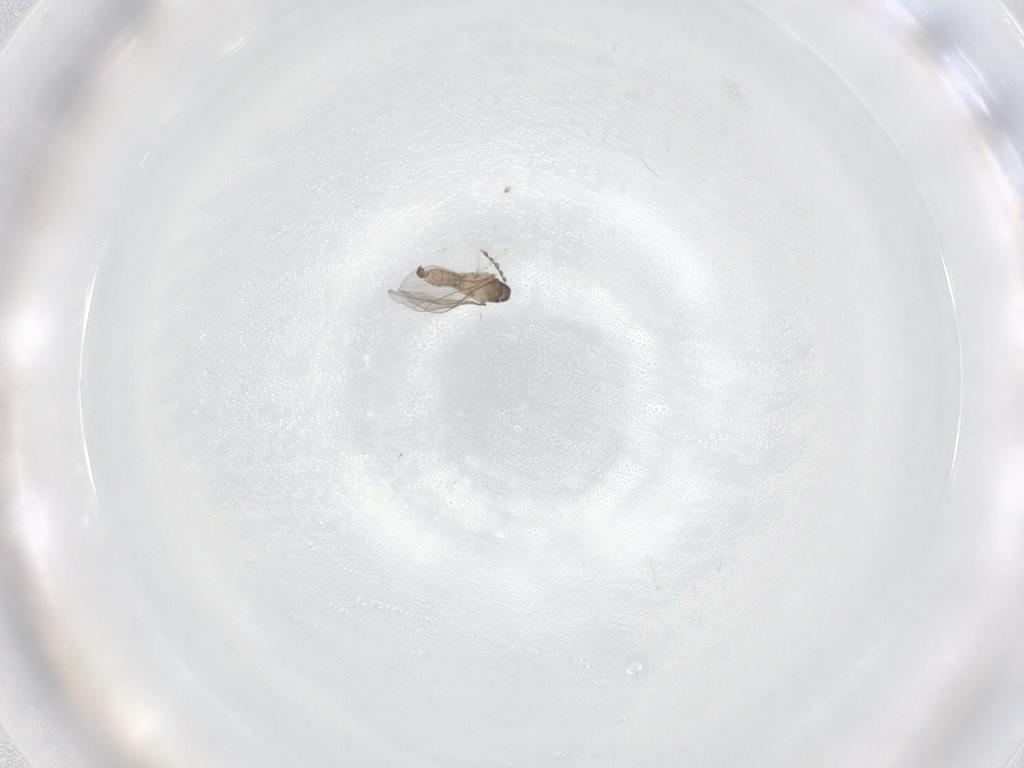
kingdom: Animalia
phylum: Arthropoda
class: Insecta
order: Diptera
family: Cecidomyiidae
